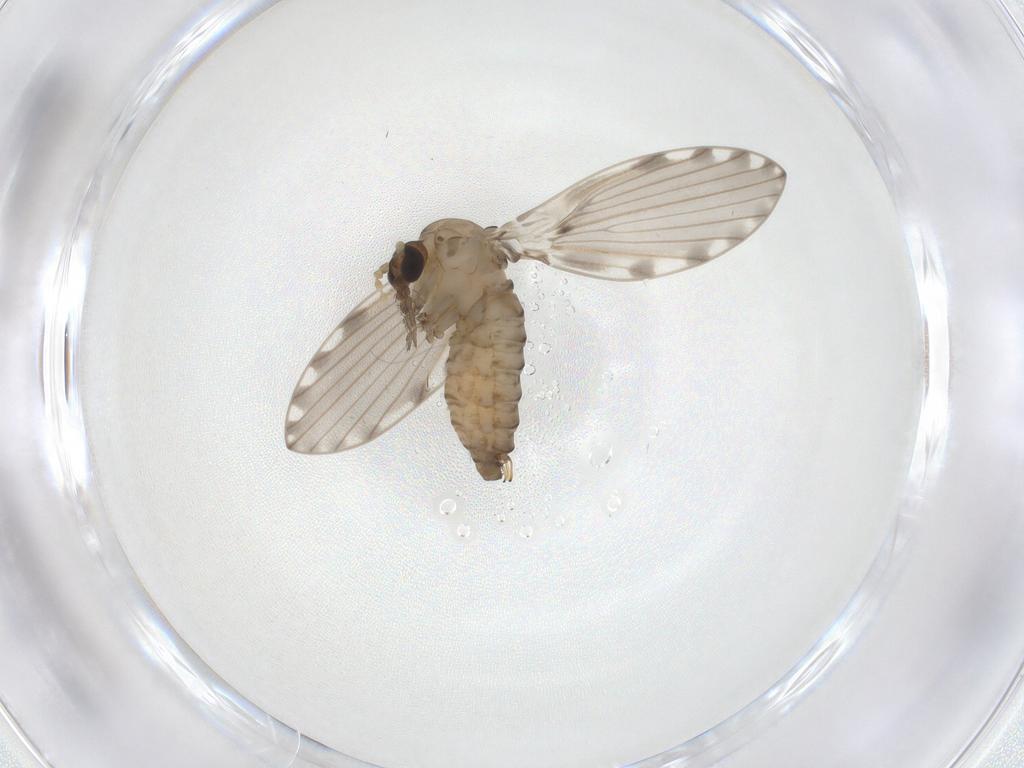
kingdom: Animalia
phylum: Arthropoda
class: Insecta
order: Diptera
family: Psychodidae
